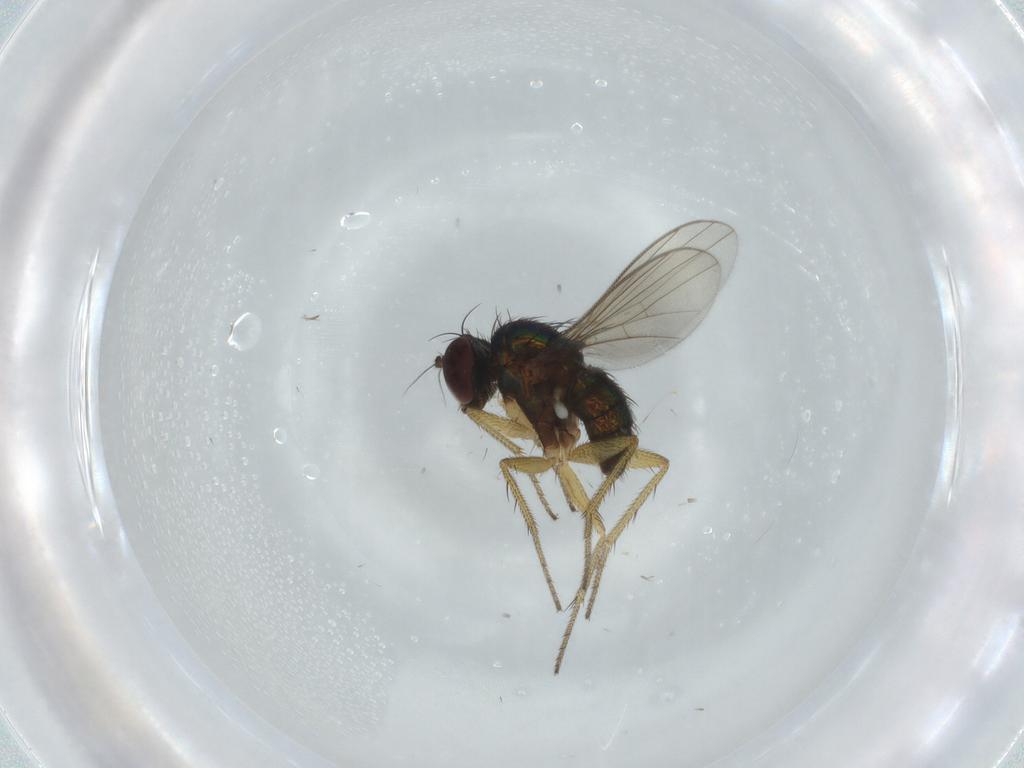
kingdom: Animalia
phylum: Arthropoda
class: Insecta
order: Diptera
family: Dolichopodidae
